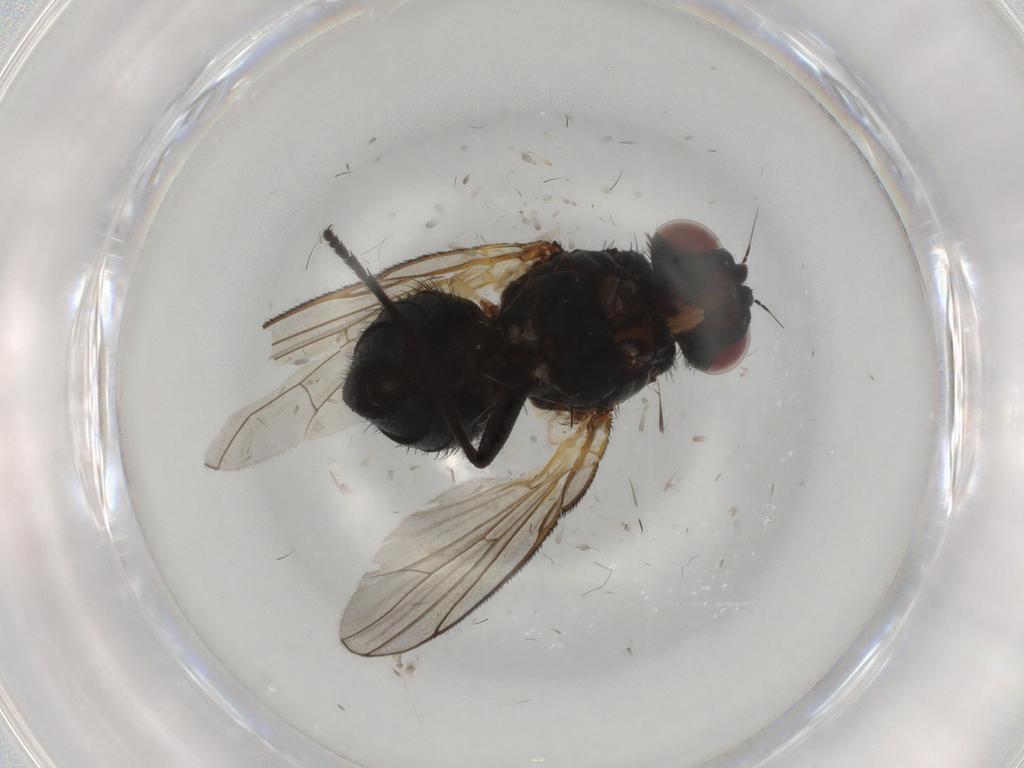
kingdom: Animalia
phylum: Arthropoda
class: Insecta
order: Diptera
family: Fannia
